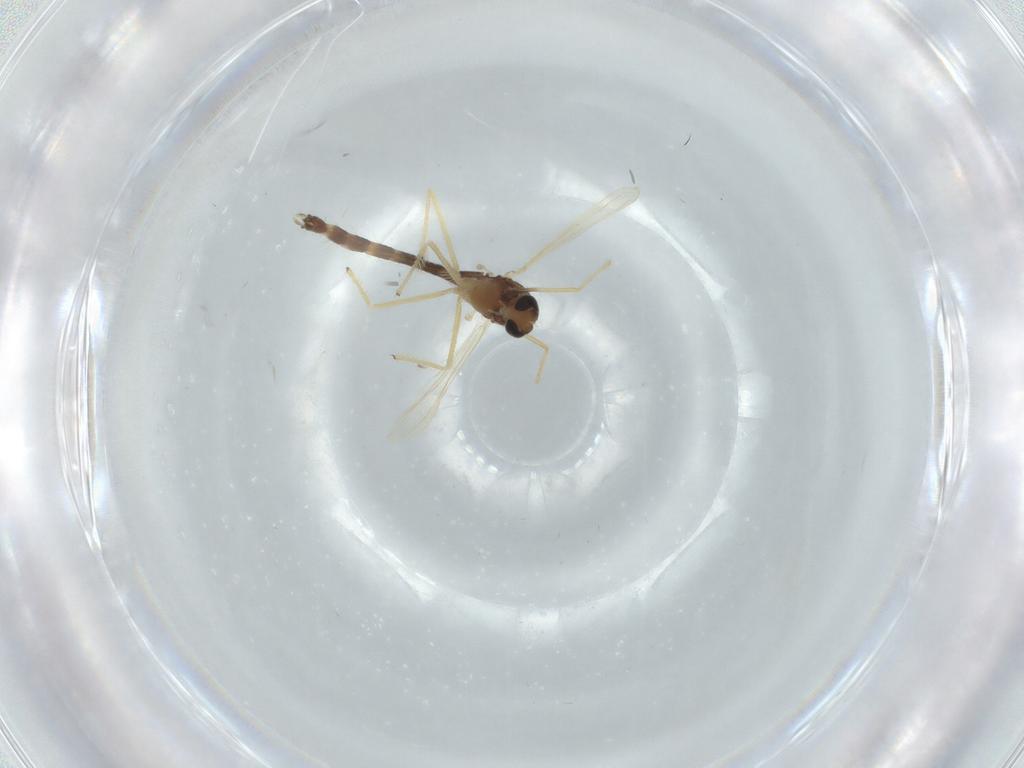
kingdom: Animalia
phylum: Arthropoda
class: Insecta
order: Diptera
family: Chironomidae
